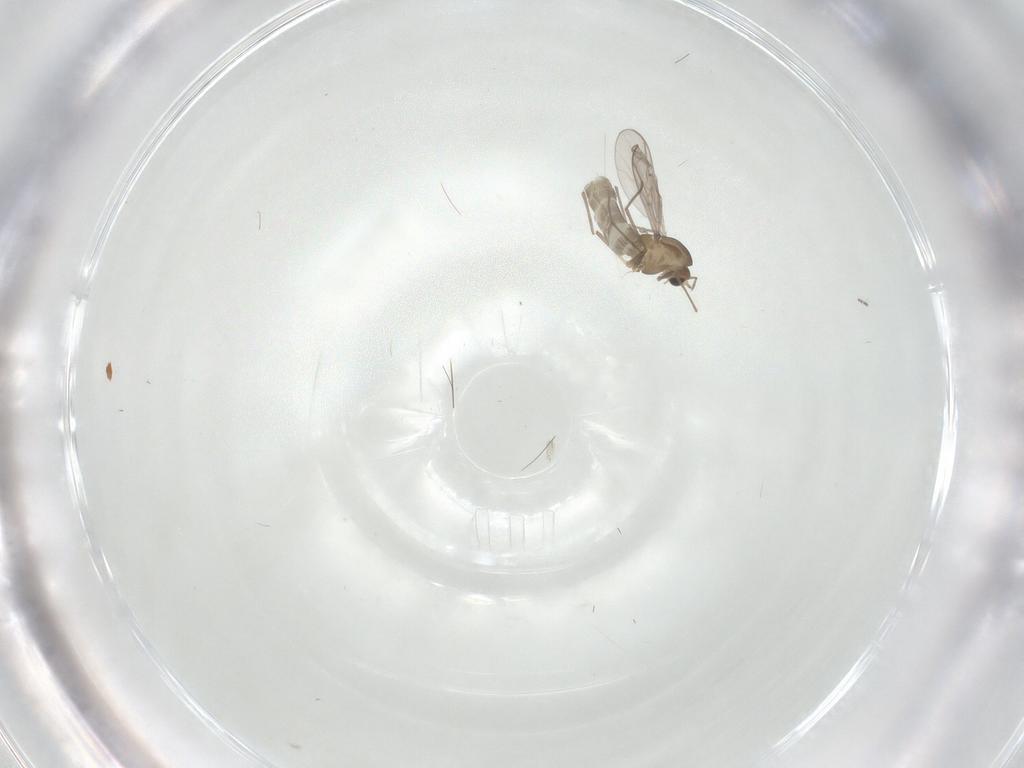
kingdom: Animalia
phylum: Arthropoda
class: Insecta
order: Diptera
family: Chironomidae
